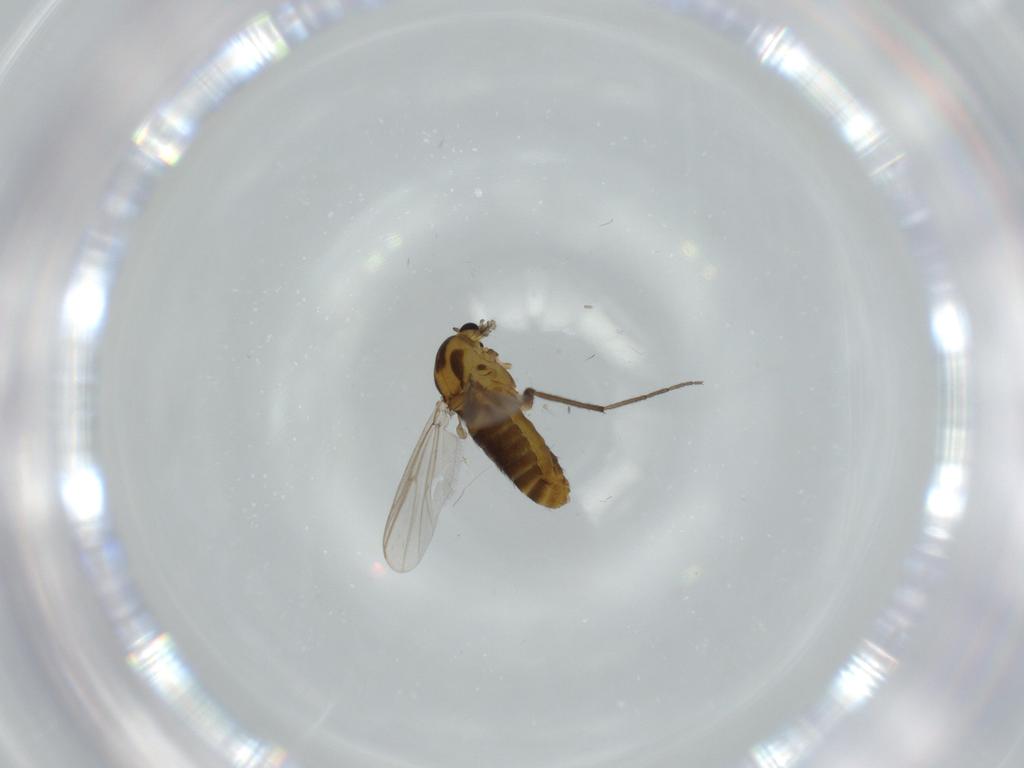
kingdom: Animalia
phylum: Arthropoda
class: Insecta
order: Diptera
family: Chironomidae
